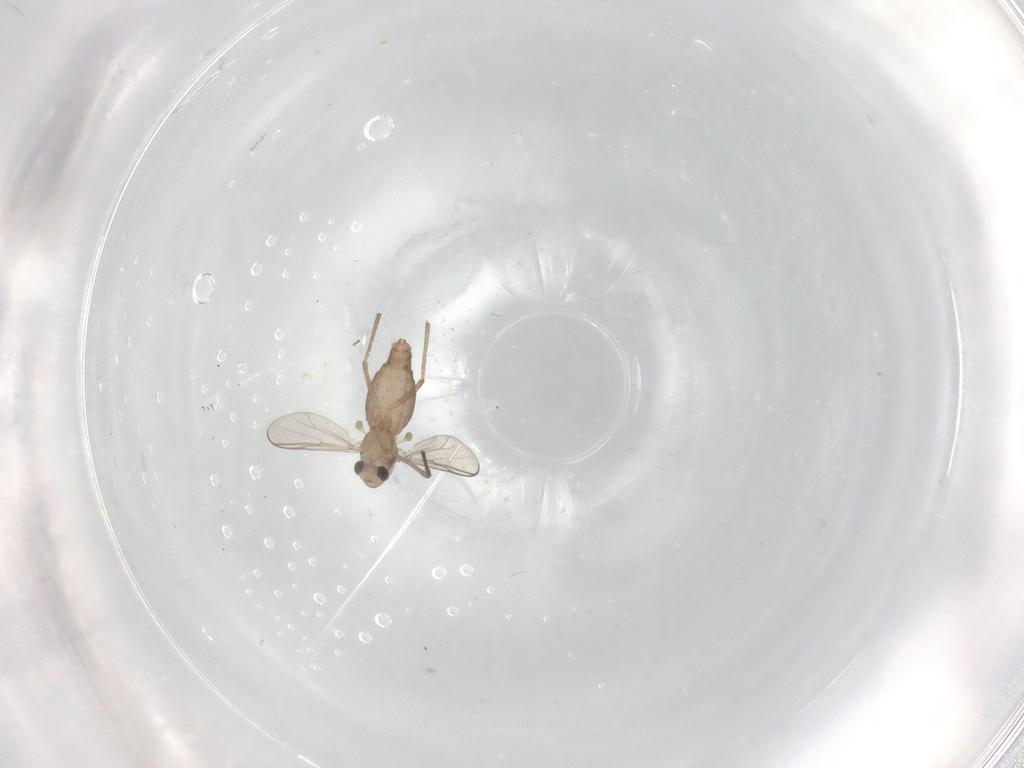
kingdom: Animalia
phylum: Arthropoda
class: Insecta
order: Diptera
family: Chironomidae
